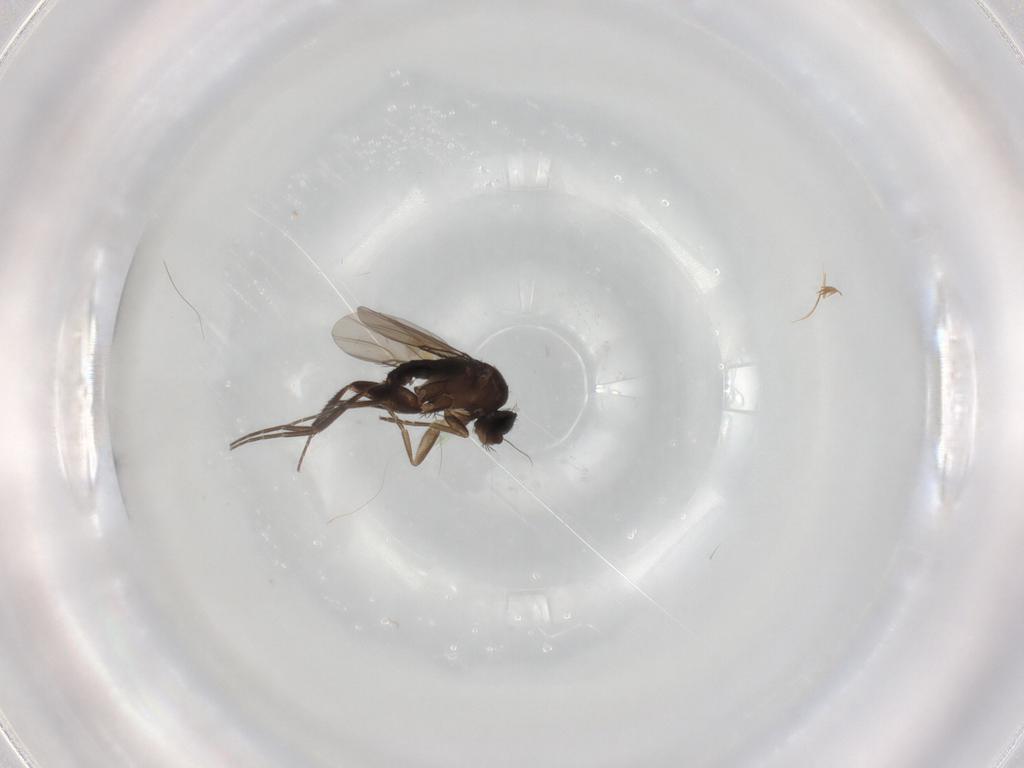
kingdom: Animalia
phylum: Arthropoda
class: Insecta
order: Diptera
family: Phoridae
